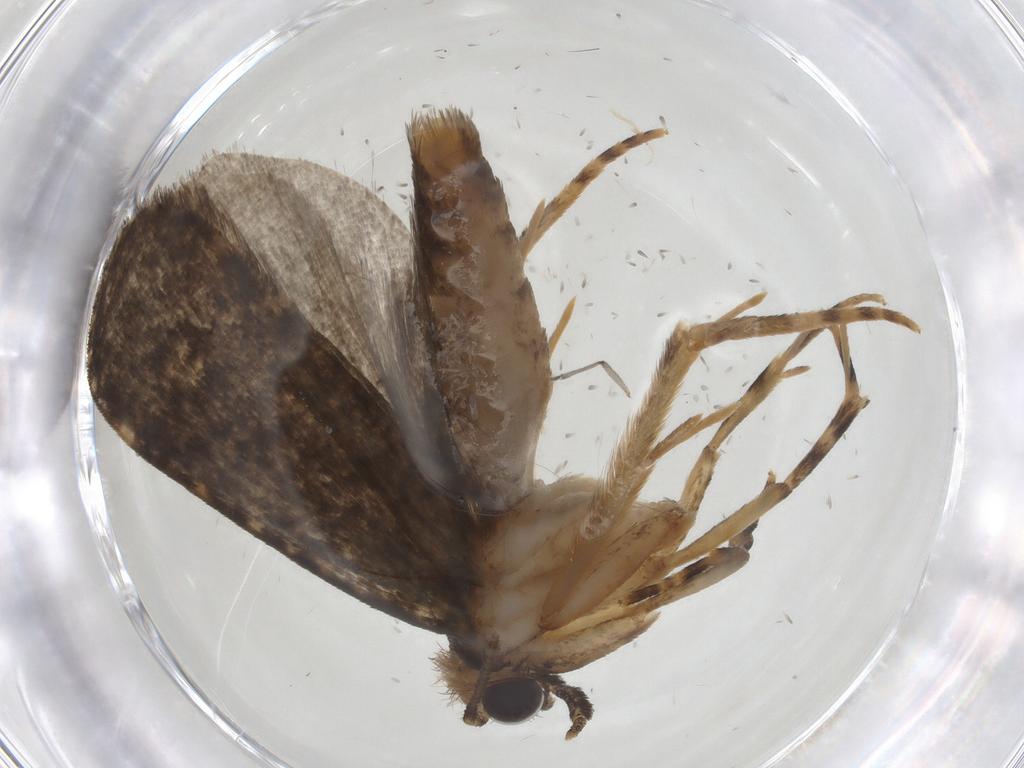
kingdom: Animalia
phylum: Arthropoda
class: Insecta
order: Lepidoptera
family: Tineidae
